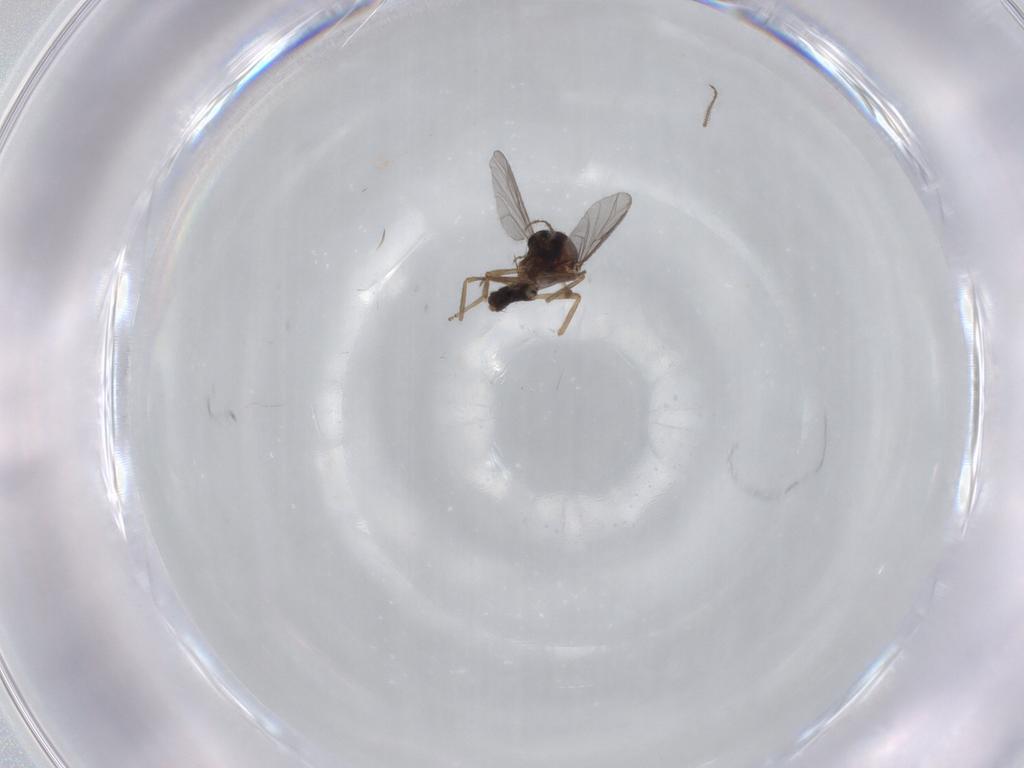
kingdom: Animalia
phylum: Arthropoda
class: Insecta
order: Diptera
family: Ceratopogonidae
